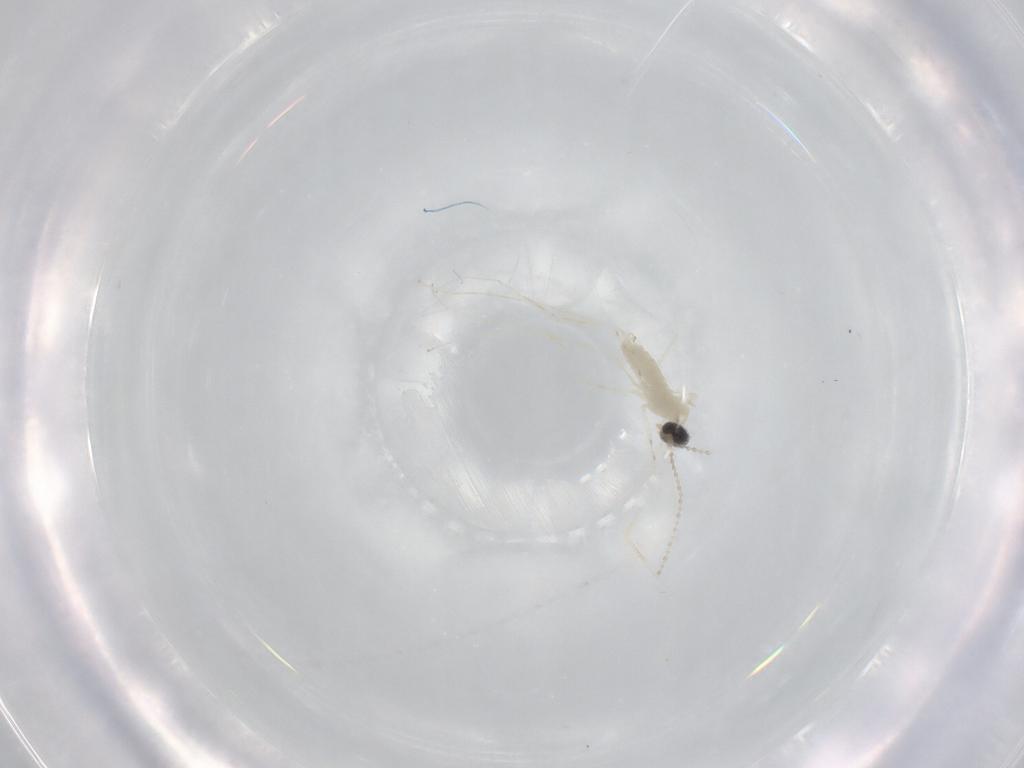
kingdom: Animalia
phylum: Arthropoda
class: Insecta
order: Diptera
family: Cecidomyiidae
